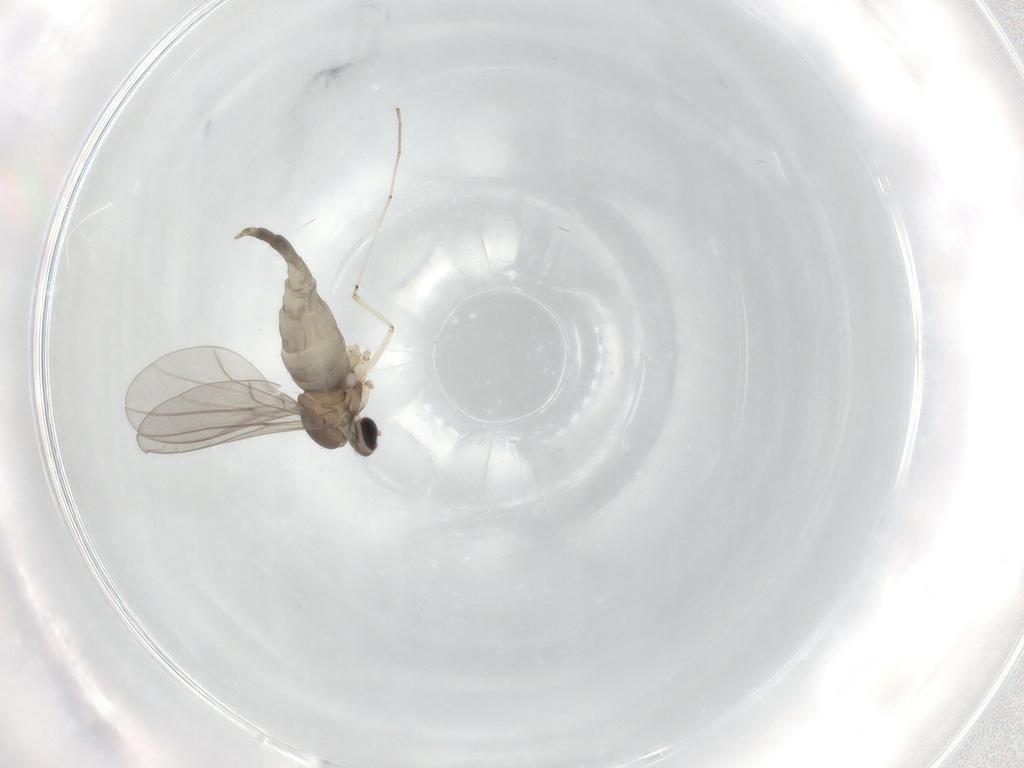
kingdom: Animalia
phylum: Arthropoda
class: Insecta
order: Diptera
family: Cecidomyiidae
